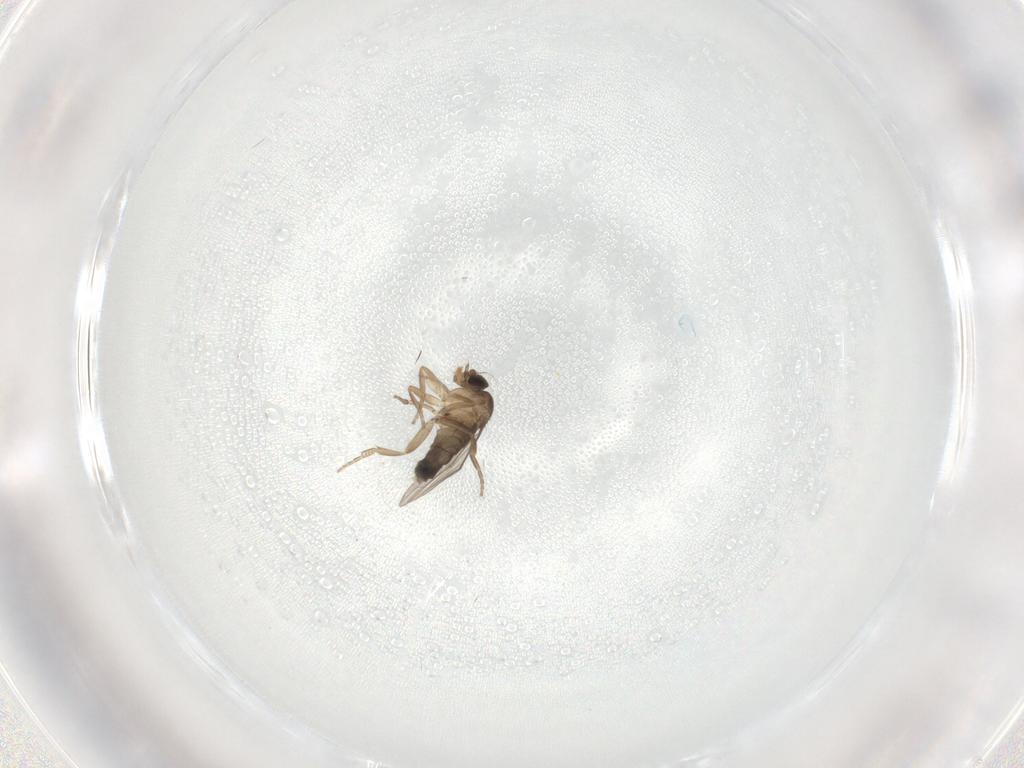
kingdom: Animalia
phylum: Arthropoda
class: Insecta
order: Diptera
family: Phoridae
